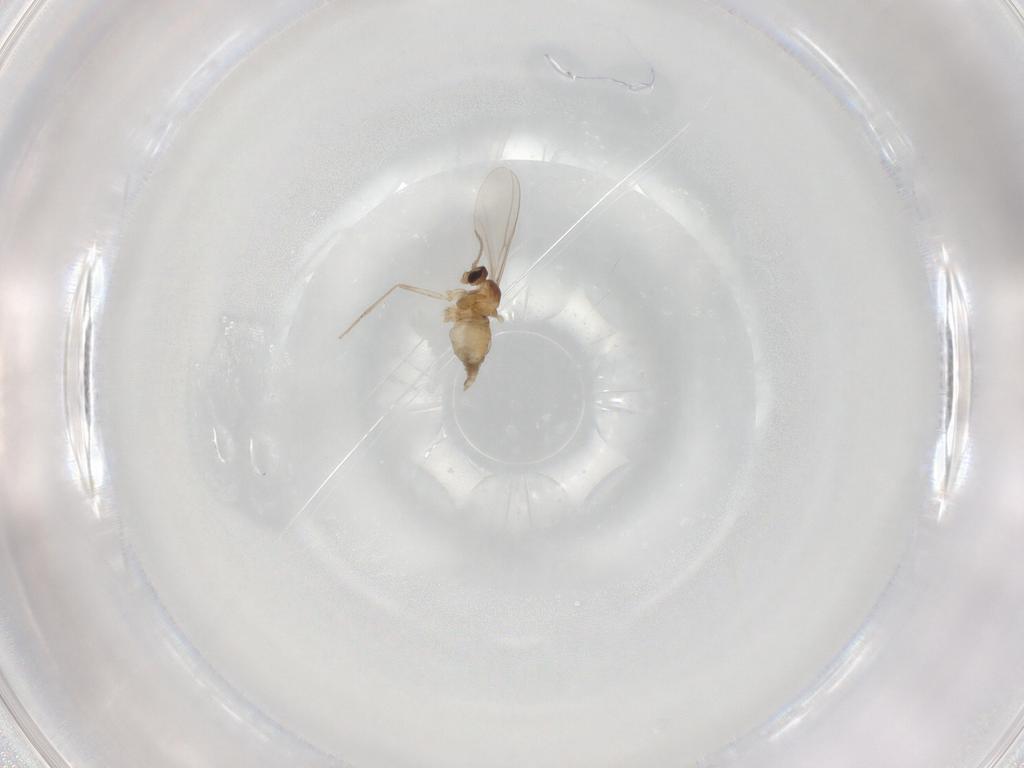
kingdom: Animalia
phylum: Arthropoda
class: Insecta
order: Diptera
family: Cecidomyiidae
